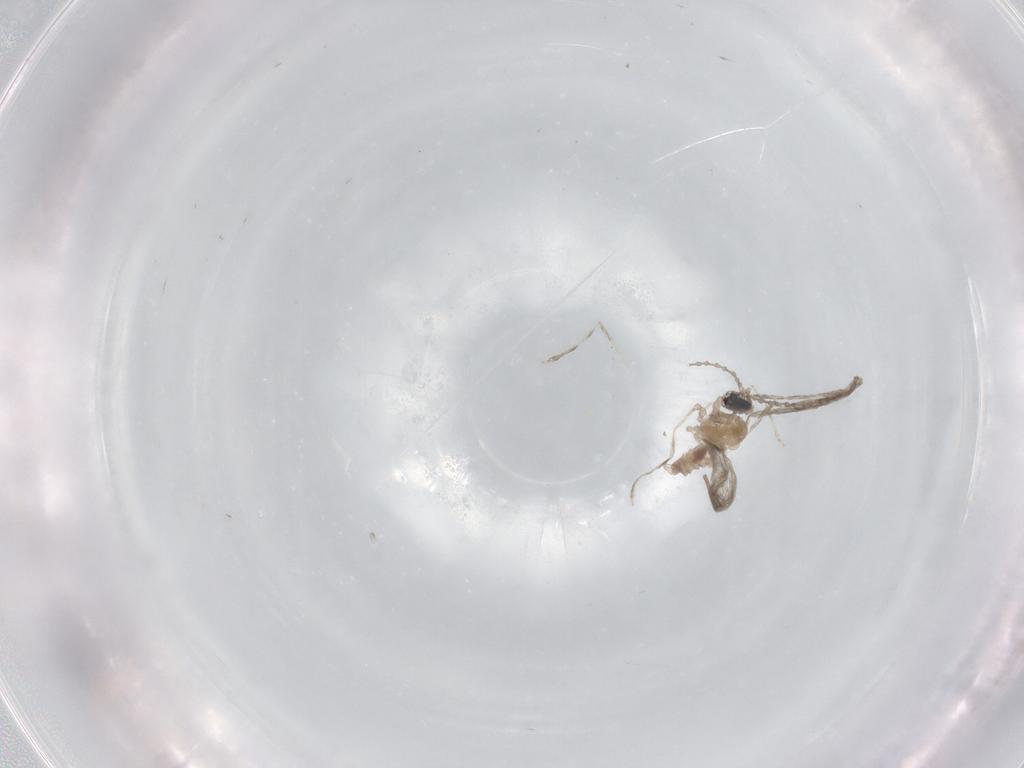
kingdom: Animalia
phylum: Arthropoda
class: Insecta
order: Diptera
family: Cecidomyiidae
